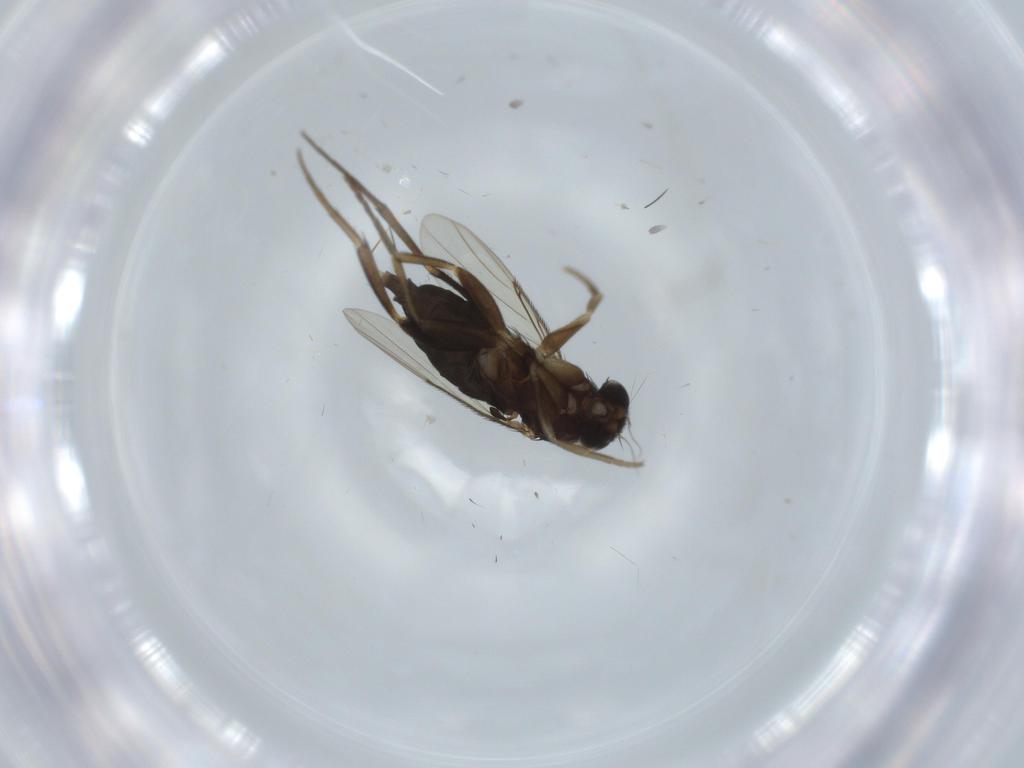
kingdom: Animalia
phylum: Arthropoda
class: Insecta
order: Diptera
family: Phoridae
